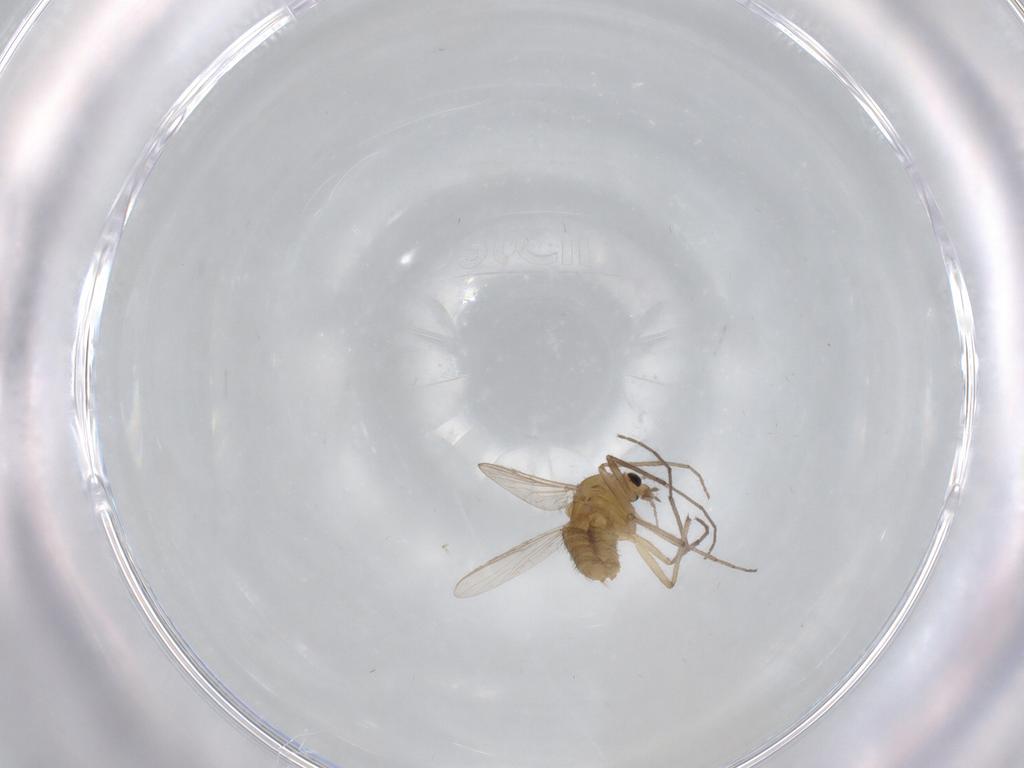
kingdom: Animalia
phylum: Arthropoda
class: Insecta
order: Diptera
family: Chironomidae
